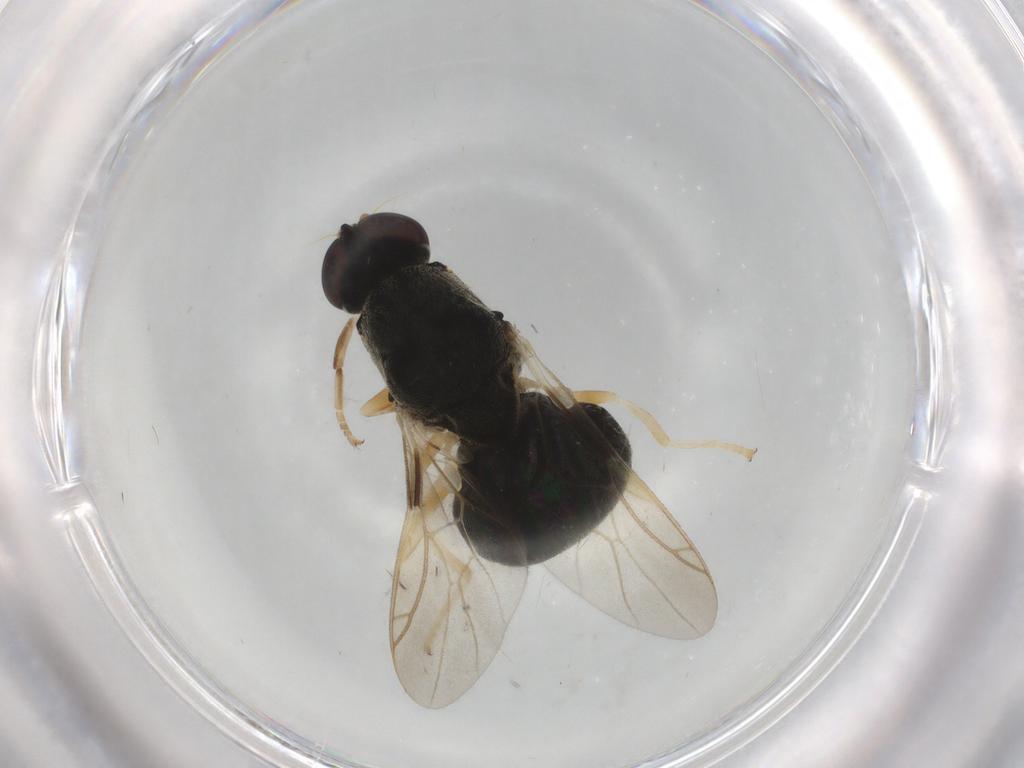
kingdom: Animalia
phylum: Arthropoda
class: Insecta
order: Diptera
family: Stratiomyidae
